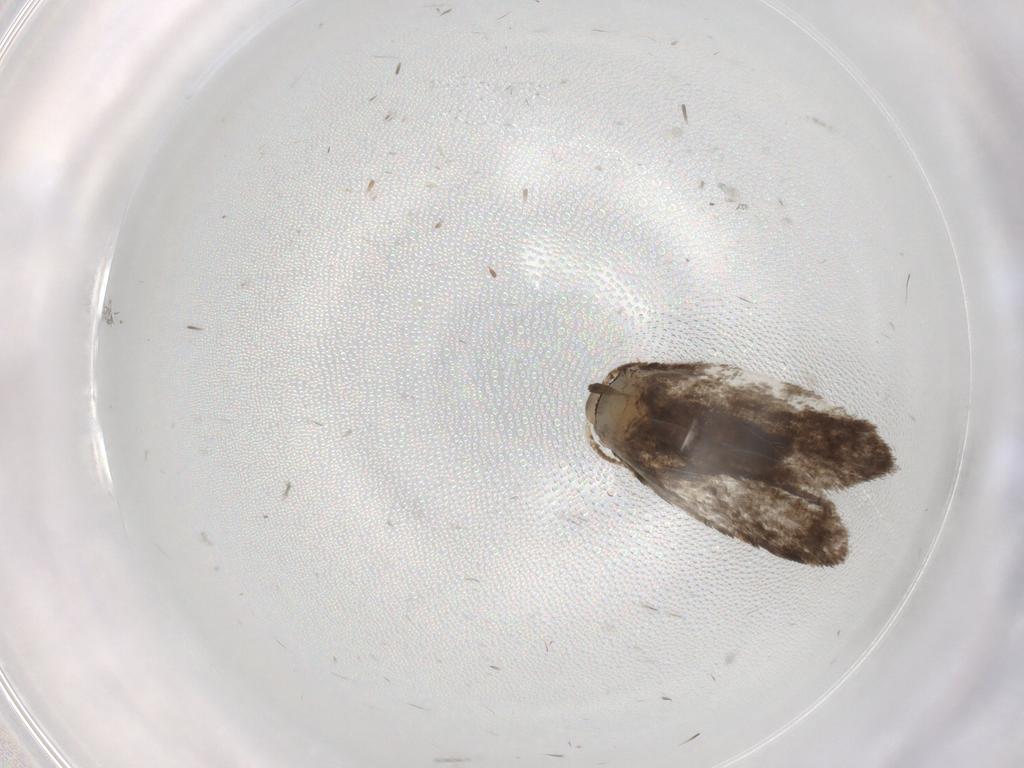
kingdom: Animalia
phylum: Arthropoda
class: Insecta
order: Lepidoptera
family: Psychidae
